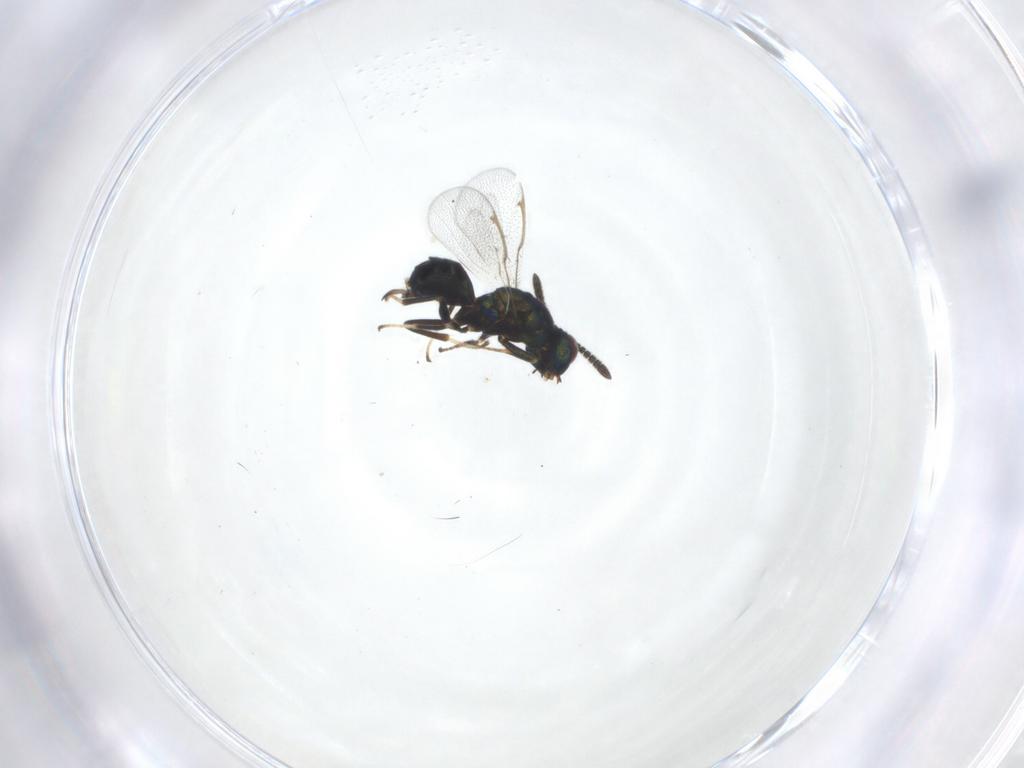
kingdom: Animalia
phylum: Arthropoda
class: Insecta
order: Hymenoptera
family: Torymidae
